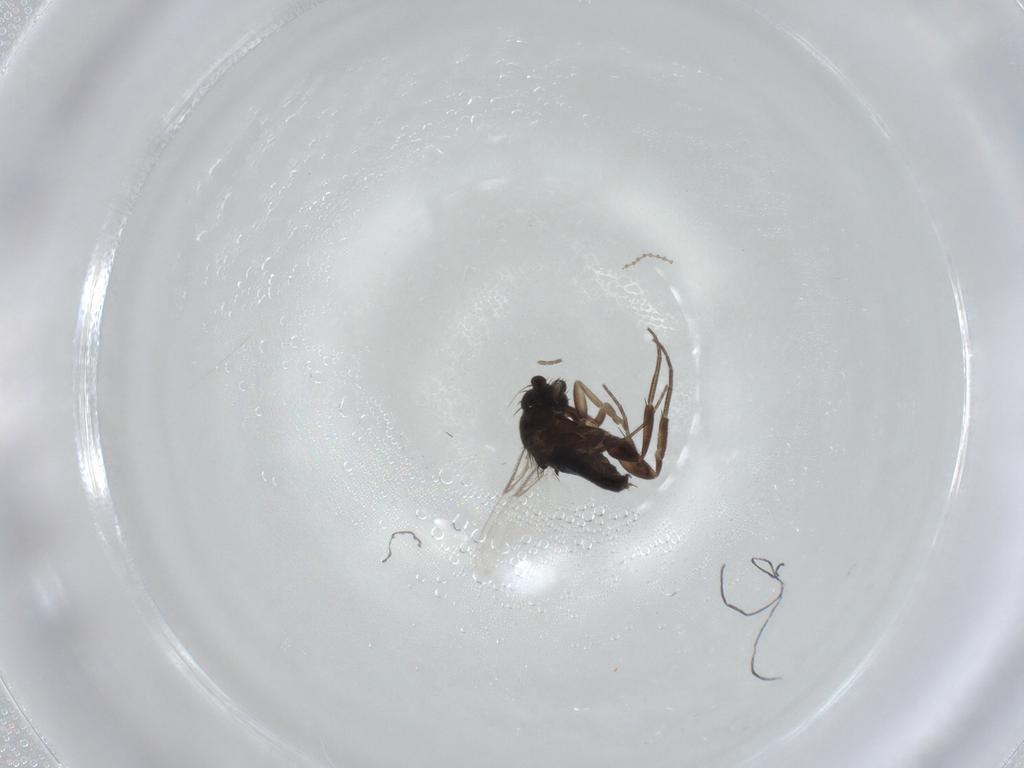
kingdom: Animalia
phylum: Arthropoda
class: Insecta
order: Diptera
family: Phoridae
